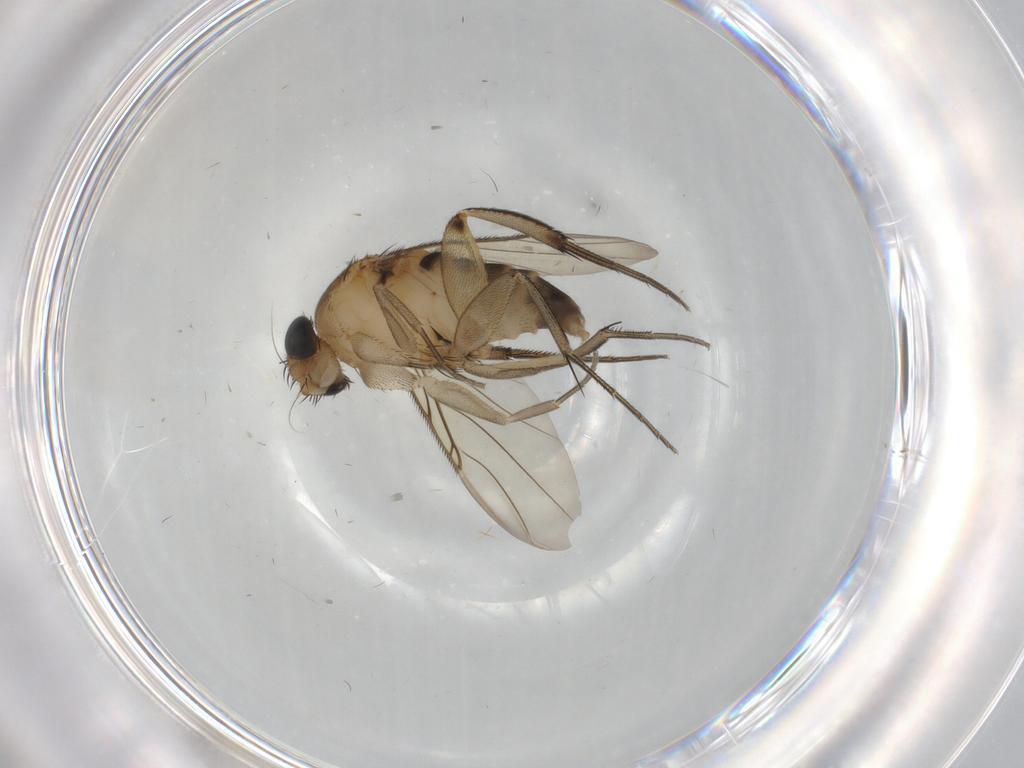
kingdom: Animalia
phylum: Arthropoda
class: Insecta
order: Diptera
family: Cecidomyiidae
